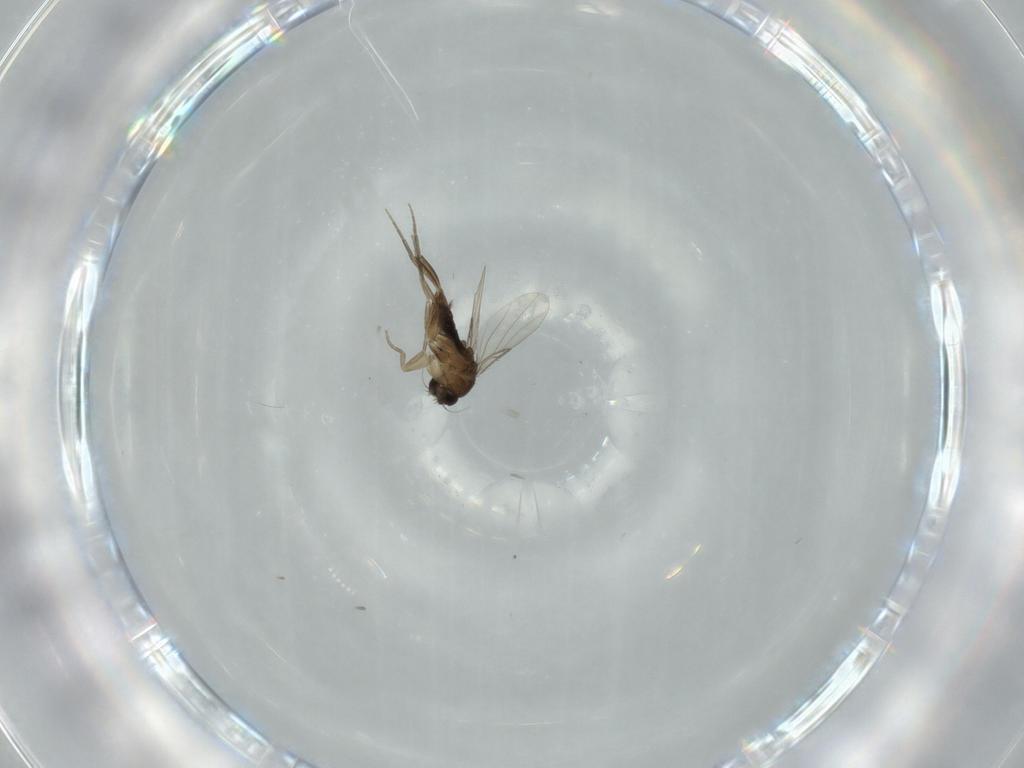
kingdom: Animalia
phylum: Arthropoda
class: Insecta
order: Diptera
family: Phoridae
